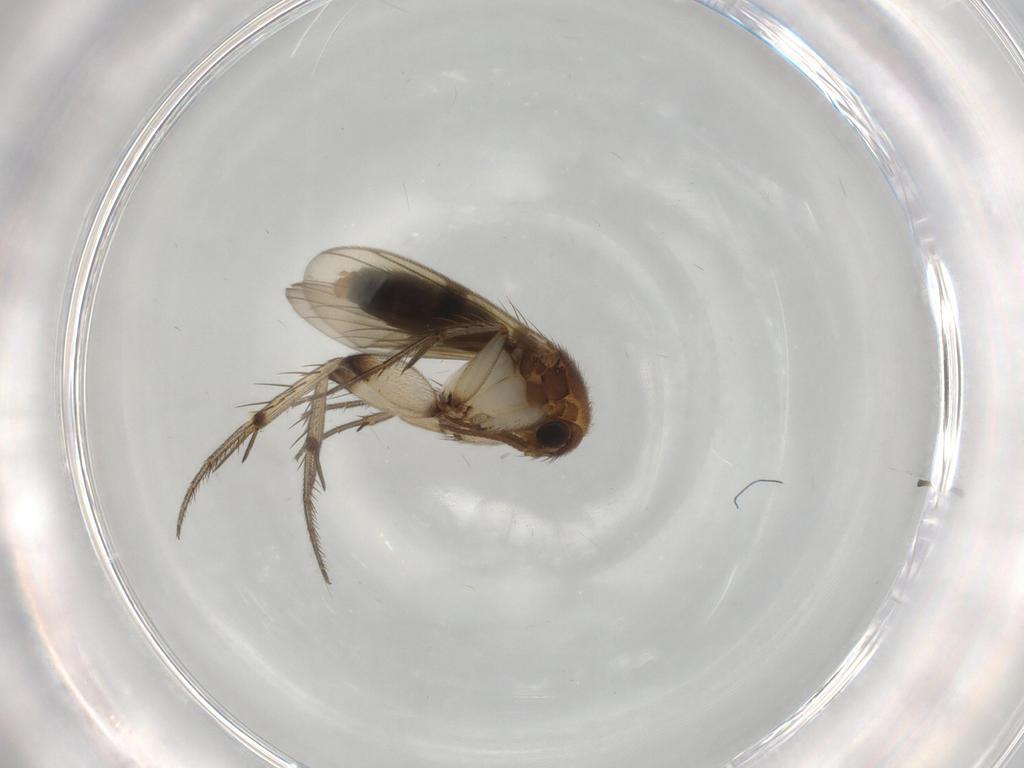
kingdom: Animalia
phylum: Arthropoda
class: Insecta
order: Diptera
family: Mycetophilidae
